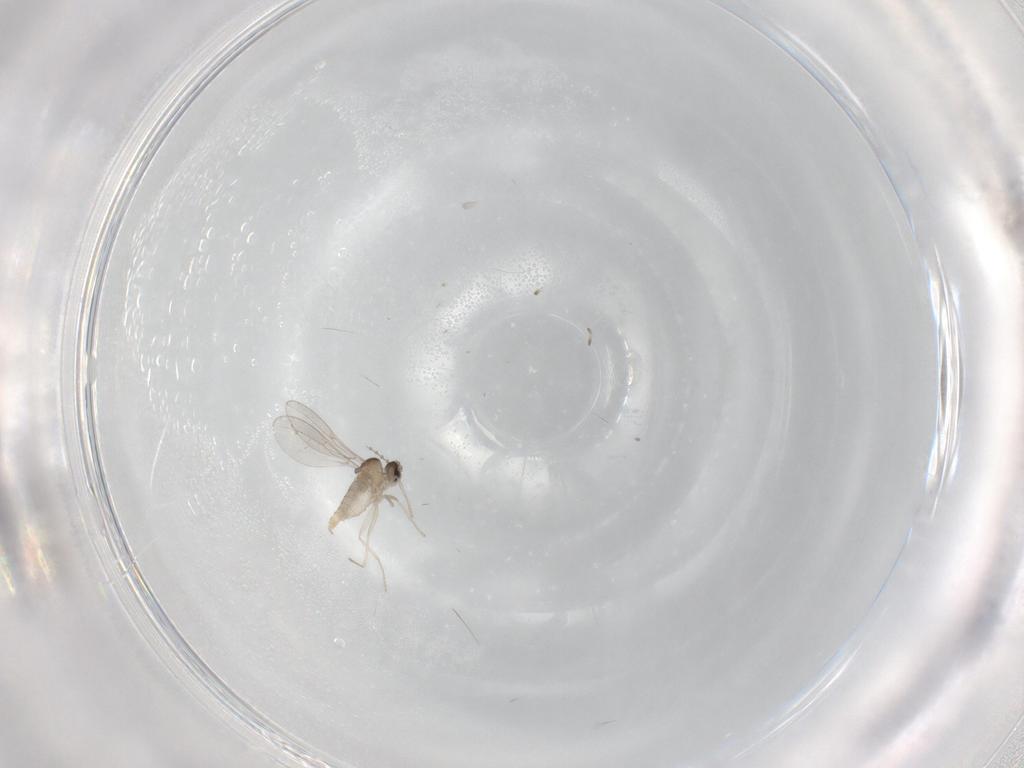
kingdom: Animalia
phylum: Arthropoda
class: Insecta
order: Diptera
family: Cecidomyiidae
